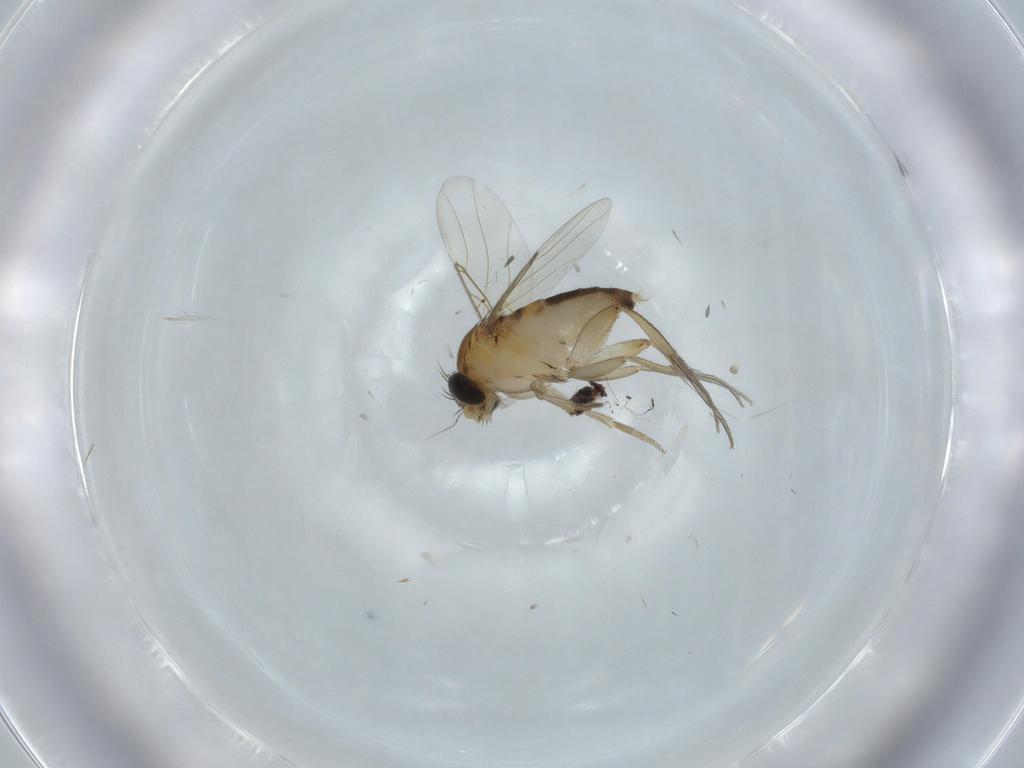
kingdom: Animalia
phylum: Arthropoda
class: Insecta
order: Diptera
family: Phoridae
